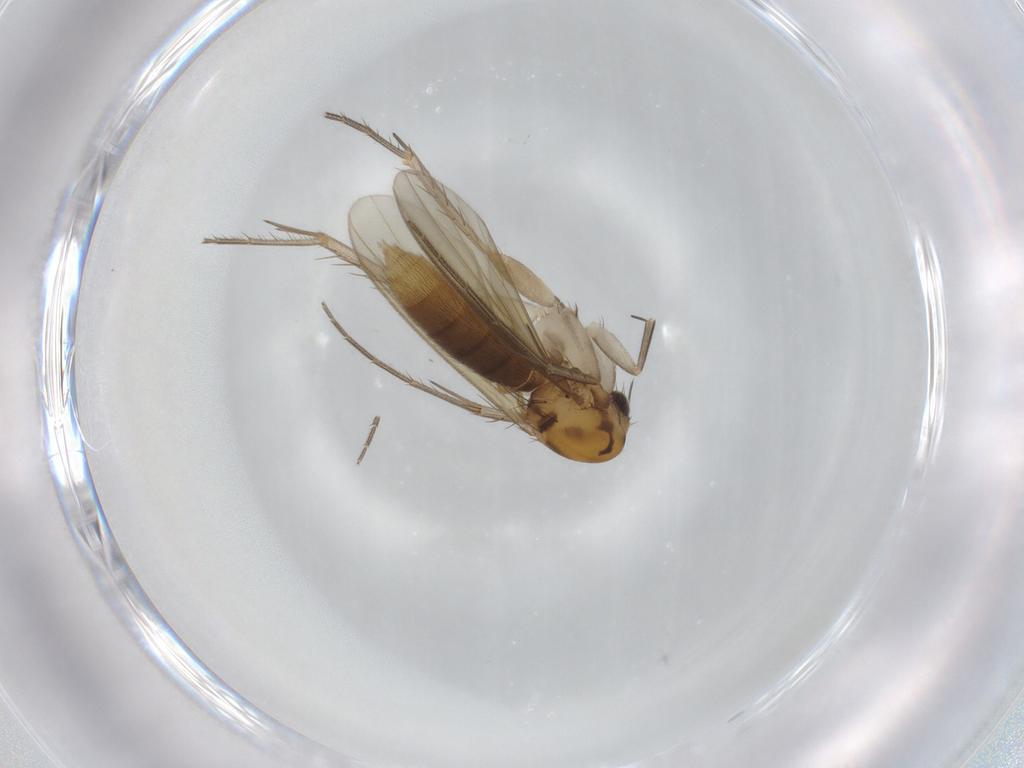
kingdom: Animalia
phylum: Arthropoda
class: Insecta
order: Diptera
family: Mycetophilidae
